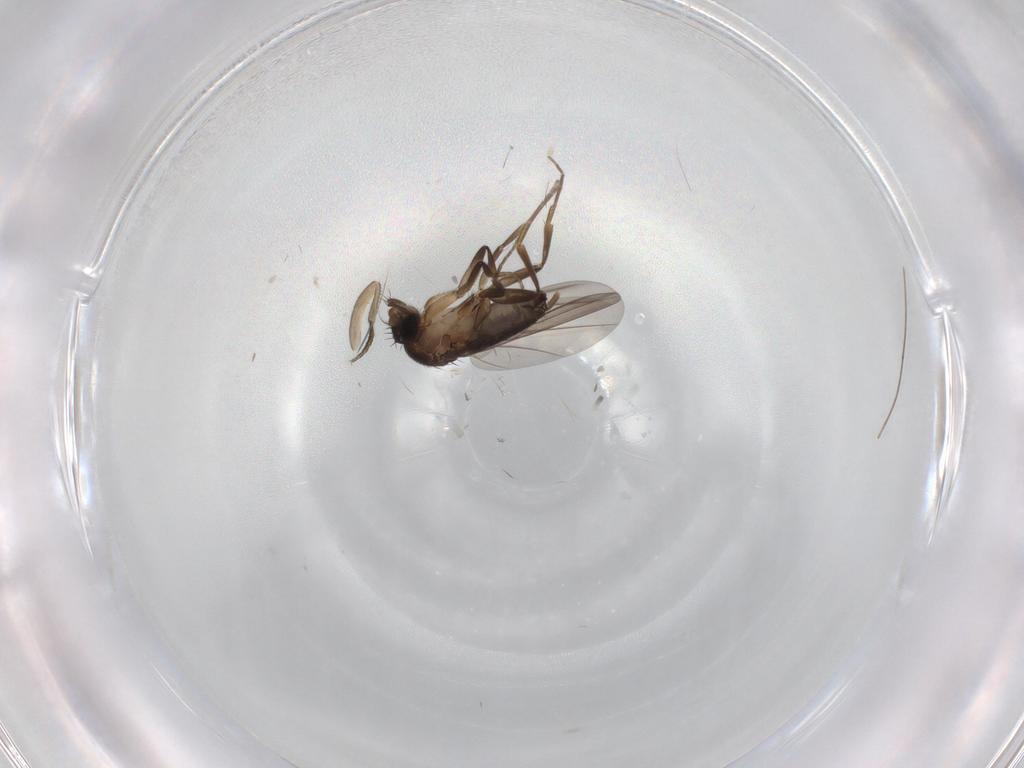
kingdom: Animalia
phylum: Arthropoda
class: Insecta
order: Diptera
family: Phoridae
